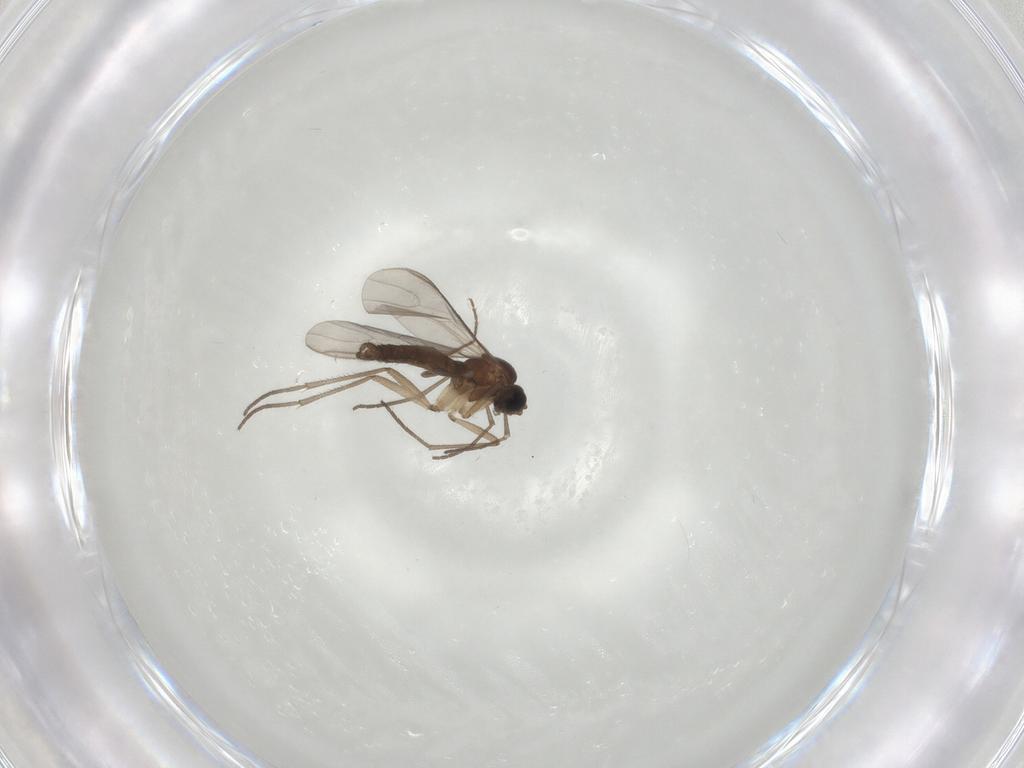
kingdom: Animalia
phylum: Arthropoda
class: Insecta
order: Diptera
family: Sciaridae
